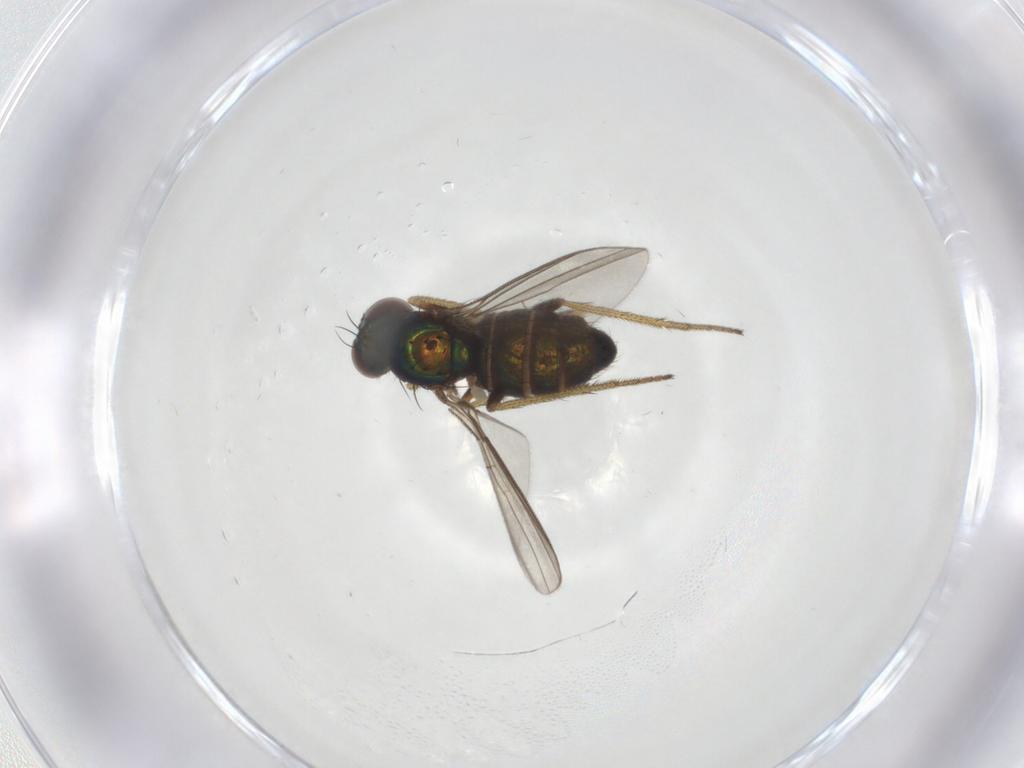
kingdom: Animalia
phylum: Arthropoda
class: Insecta
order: Diptera
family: Dolichopodidae
